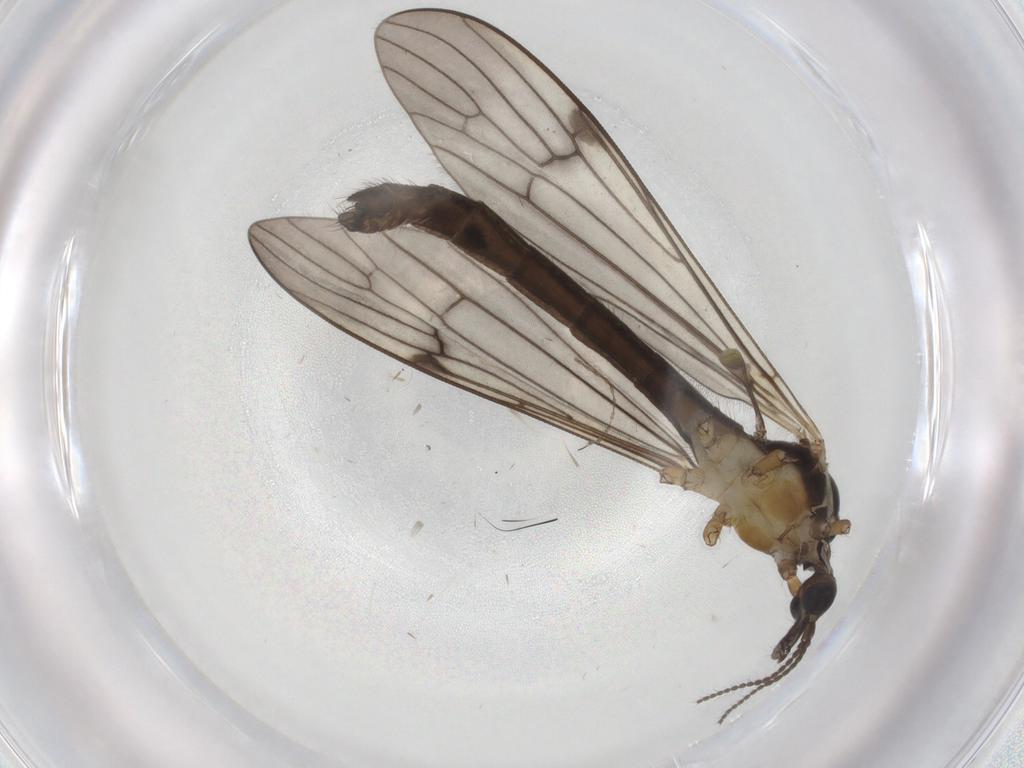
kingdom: Animalia
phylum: Arthropoda
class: Insecta
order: Diptera
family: Limoniidae
